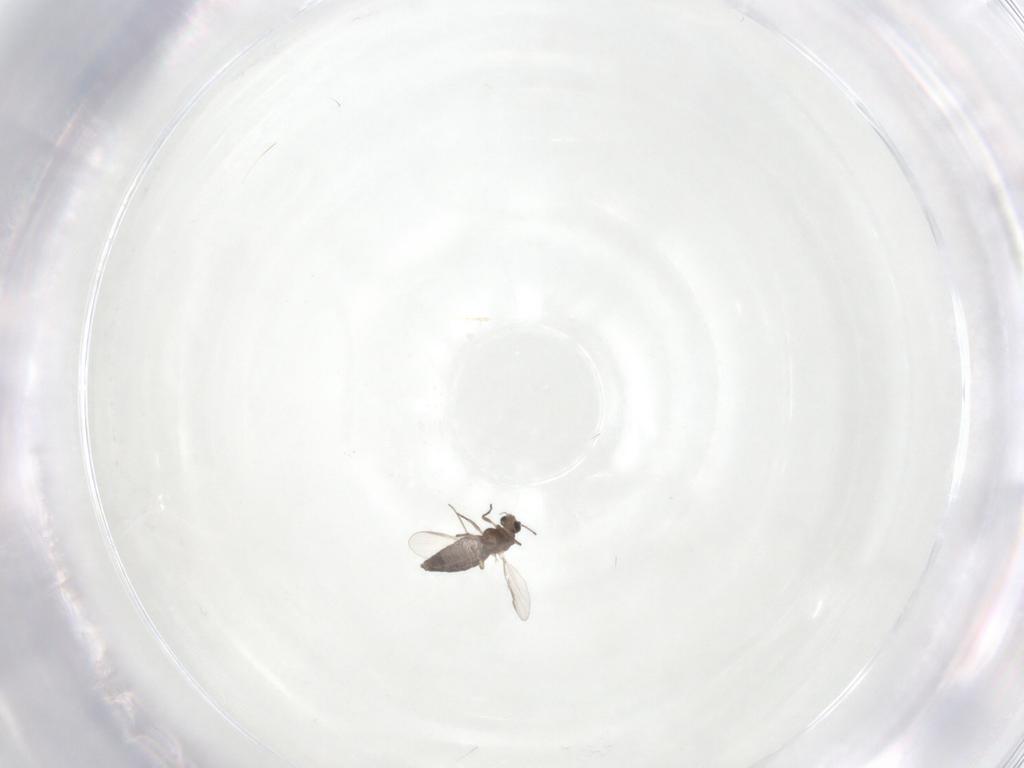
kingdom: Animalia
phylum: Arthropoda
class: Insecta
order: Diptera
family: Chironomidae
